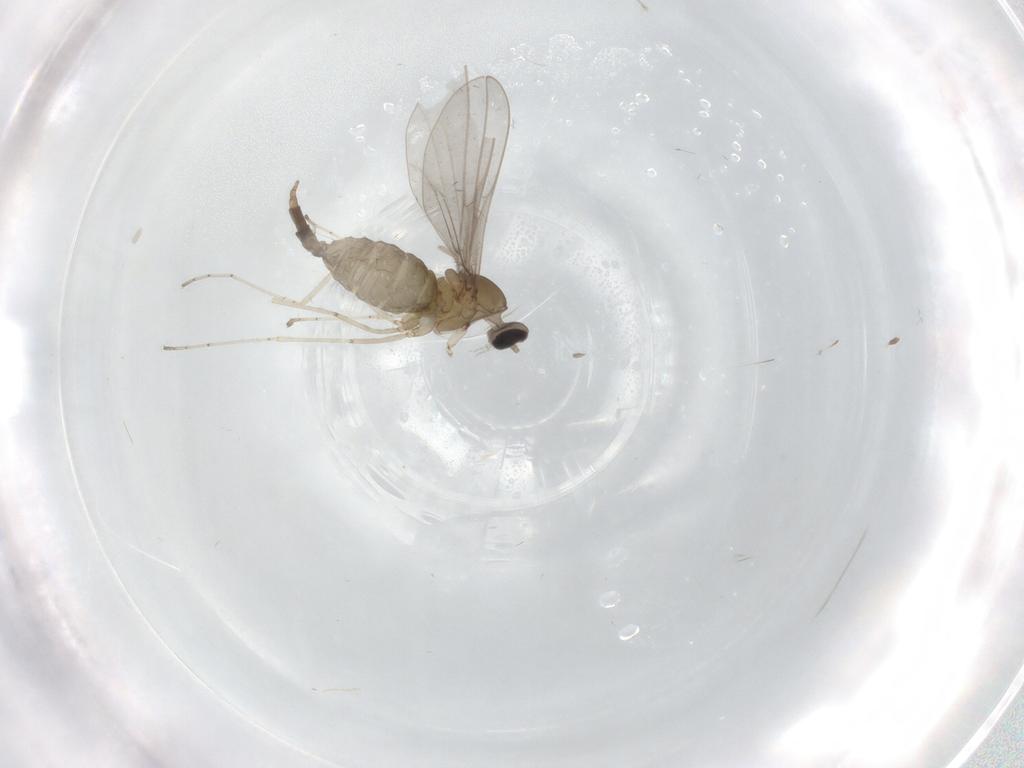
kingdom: Animalia
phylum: Arthropoda
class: Insecta
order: Diptera
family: Cecidomyiidae
